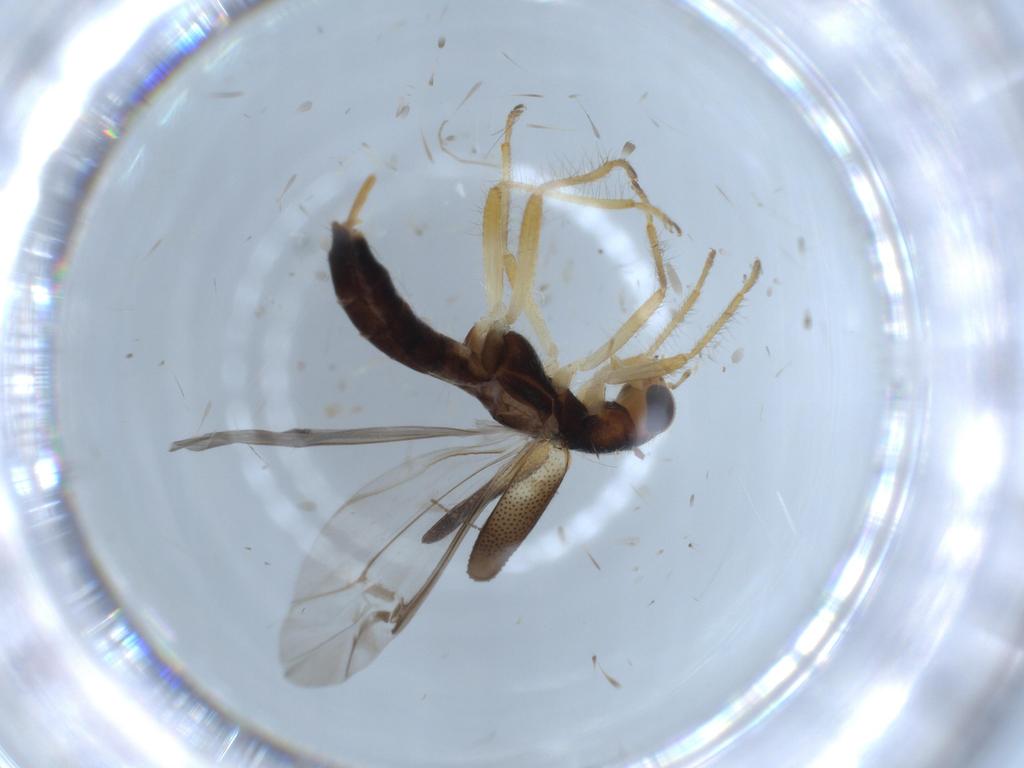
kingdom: Animalia
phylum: Arthropoda
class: Insecta
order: Coleoptera
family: Cleridae
